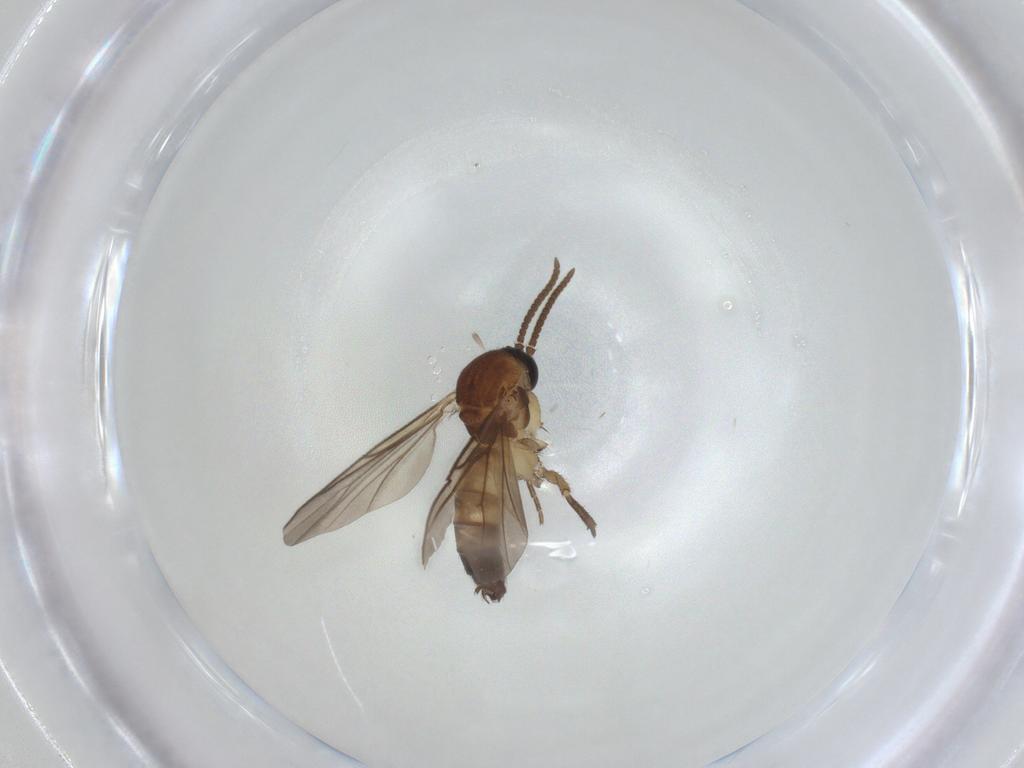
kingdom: Animalia
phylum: Arthropoda
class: Insecta
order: Diptera
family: Mycetophilidae
